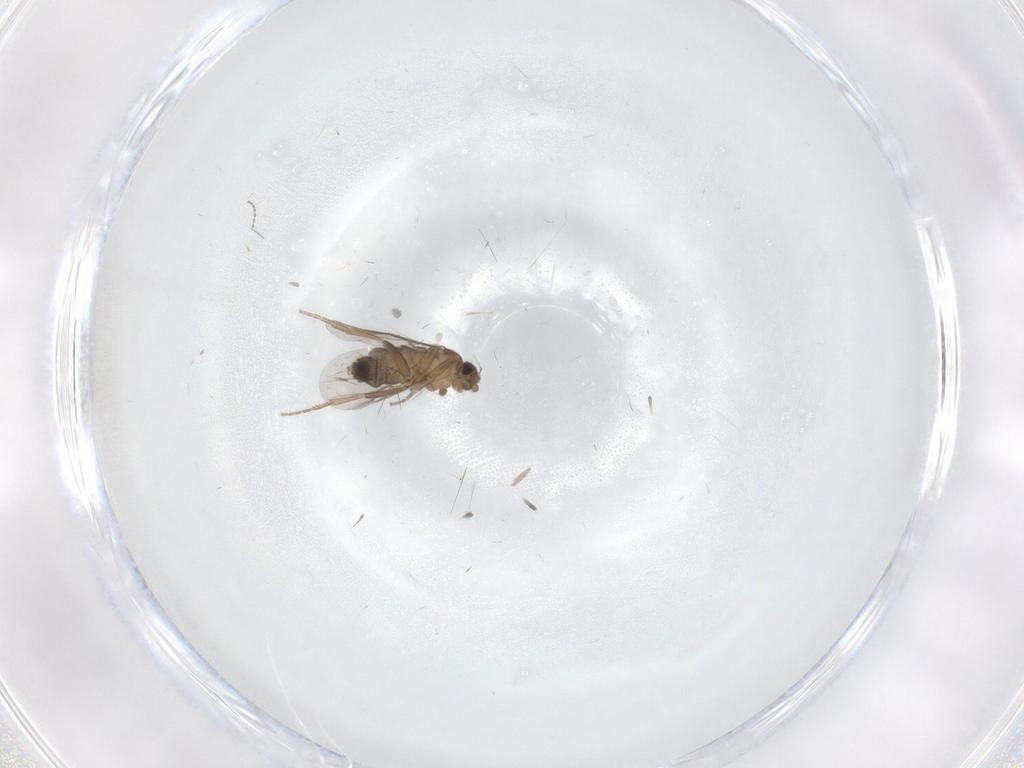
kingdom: Animalia
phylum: Arthropoda
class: Insecta
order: Diptera
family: Phoridae
